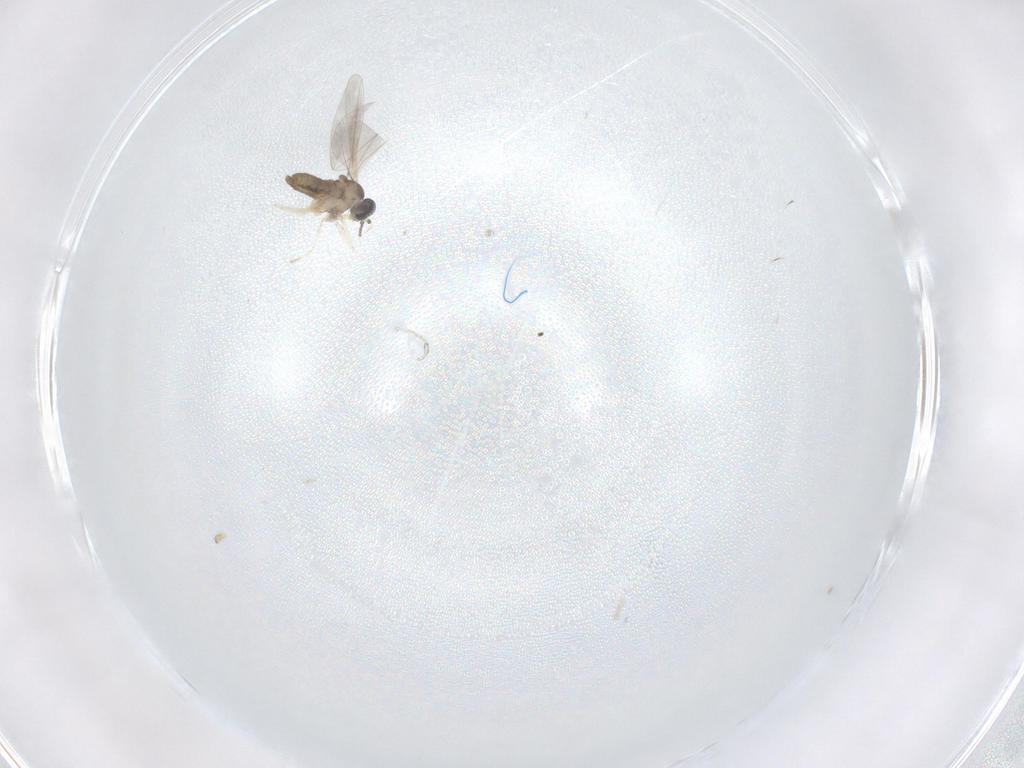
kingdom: Animalia
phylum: Arthropoda
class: Insecta
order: Diptera
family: Cecidomyiidae
